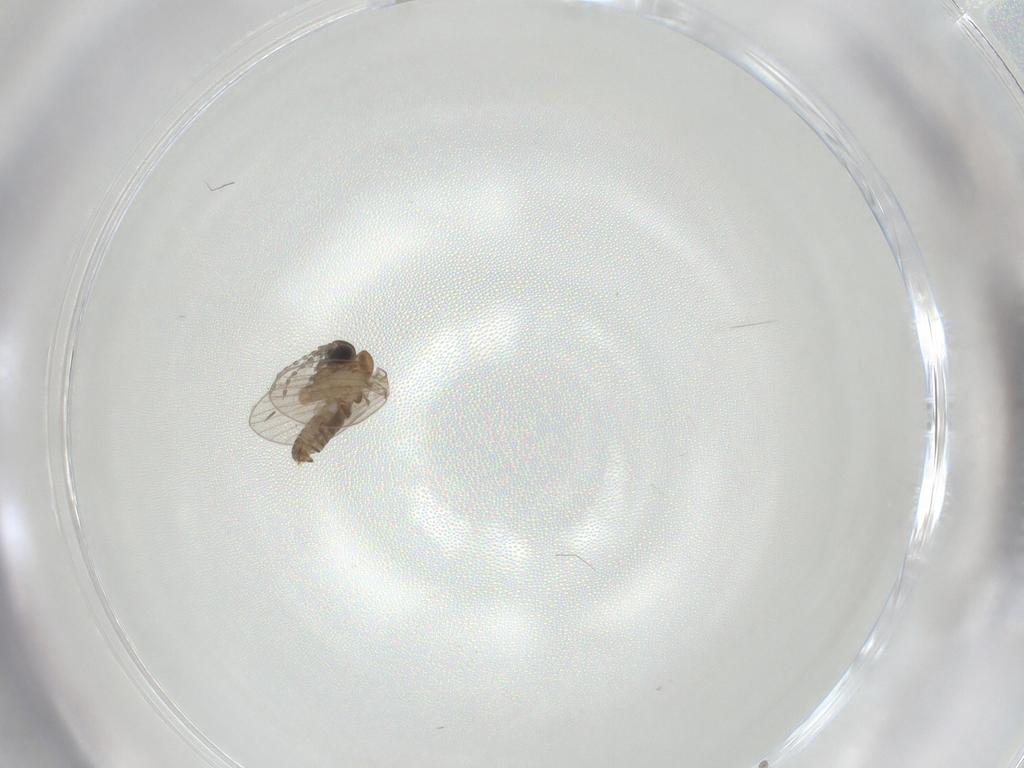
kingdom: Animalia
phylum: Arthropoda
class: Insecta
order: Diptera
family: Psychodidae
